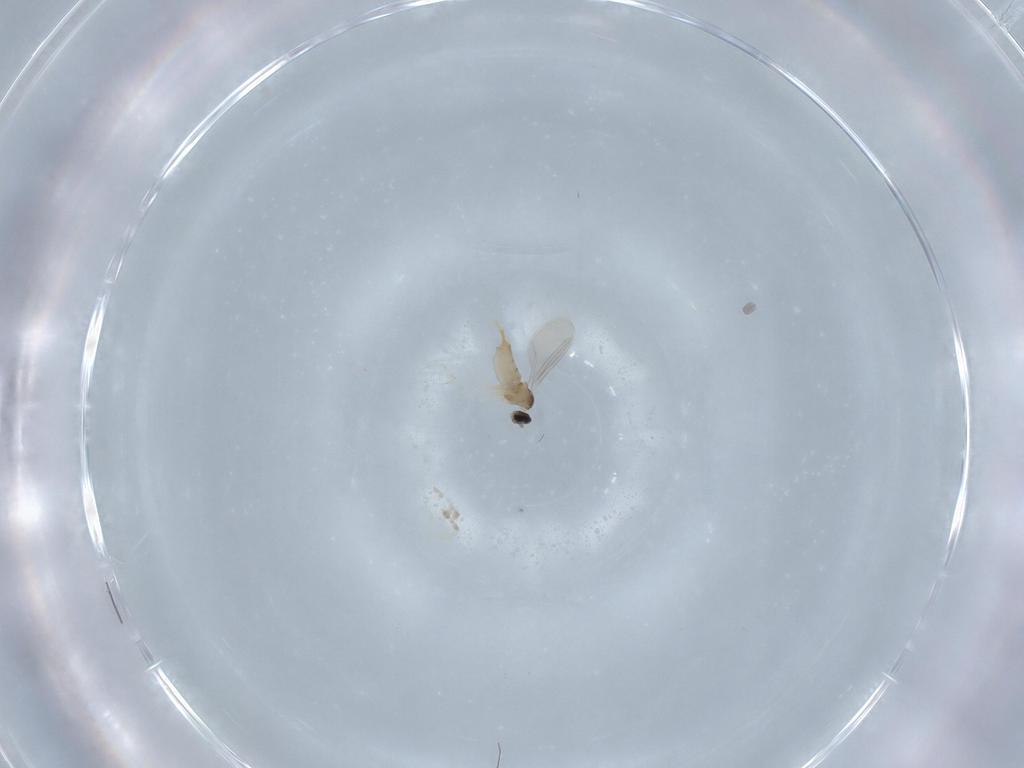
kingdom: Animalia
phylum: Arthropoda
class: Insecta
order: Diptera
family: Cecidomyiidae
